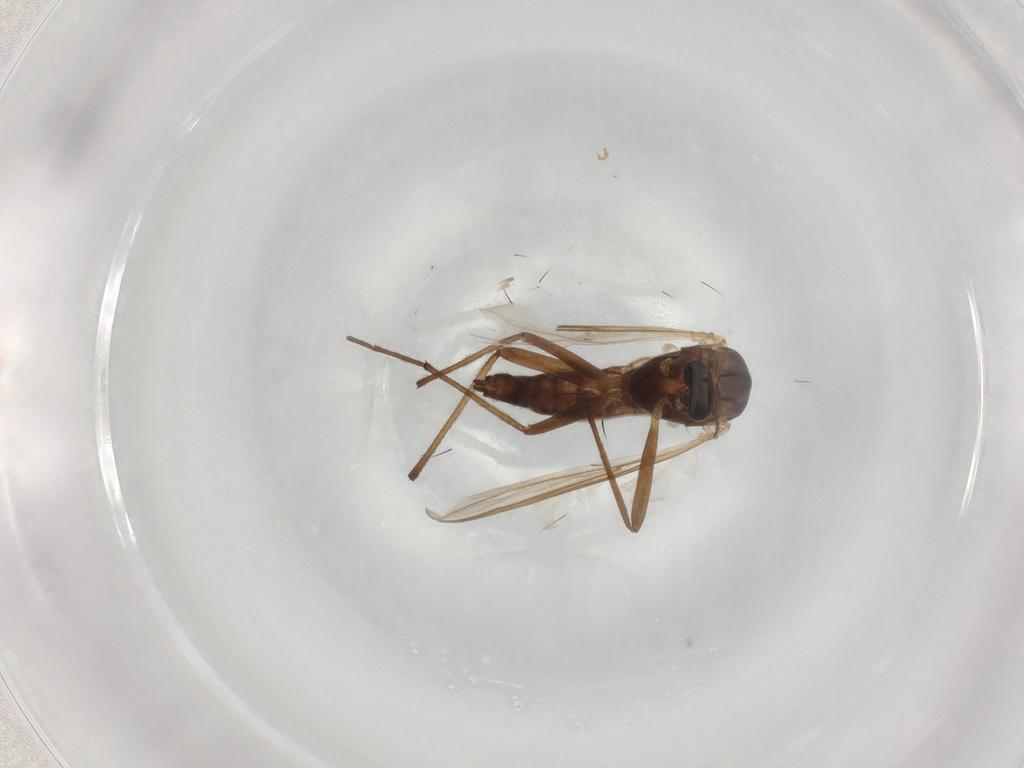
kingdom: Animalia
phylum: Arthropoda
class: Insecta
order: Diptera
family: Chironomidae
